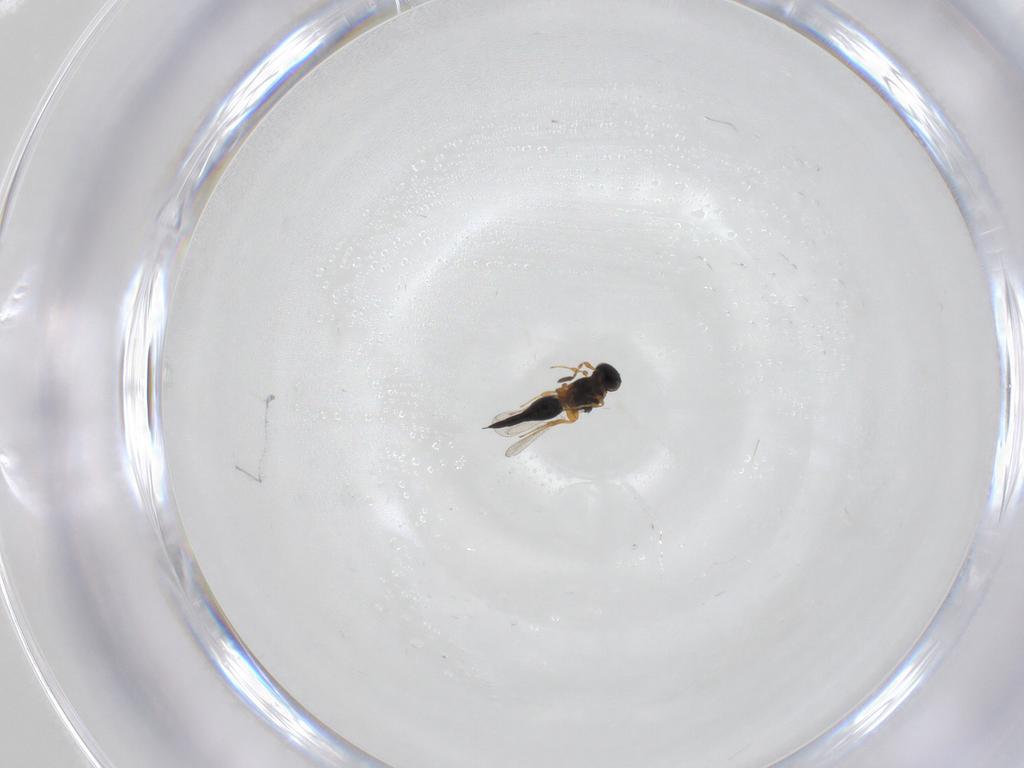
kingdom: Animalia
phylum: Arthropoda
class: Insecta
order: Hymenoptera
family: Platygastridae
